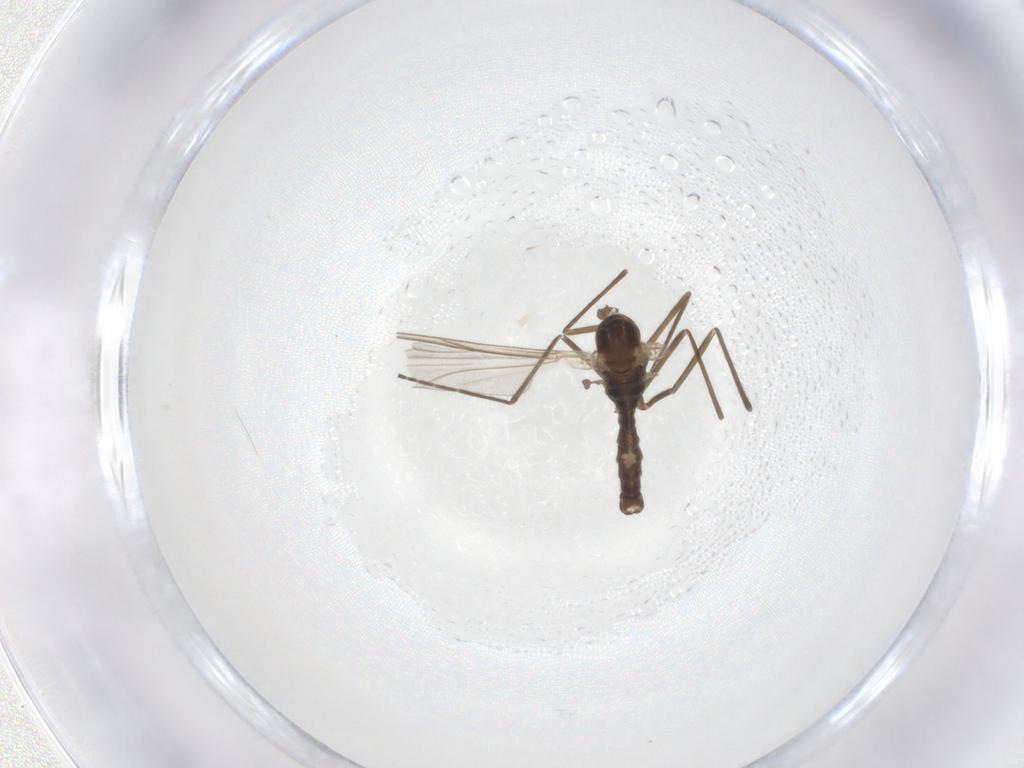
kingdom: Animalia
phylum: Arthropoda
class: Insecta
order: Diptera
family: Cecidomyiidae
